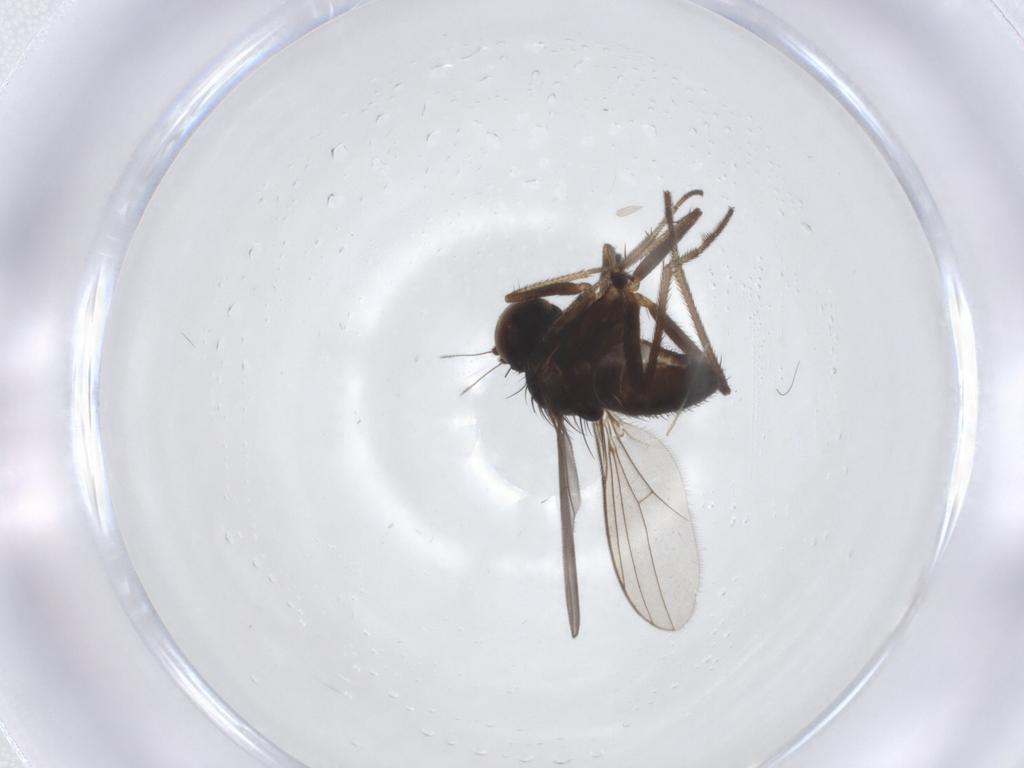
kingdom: Animalia
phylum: Arthropoda
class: Insecta
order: Diptera
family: Dolichopodidae
